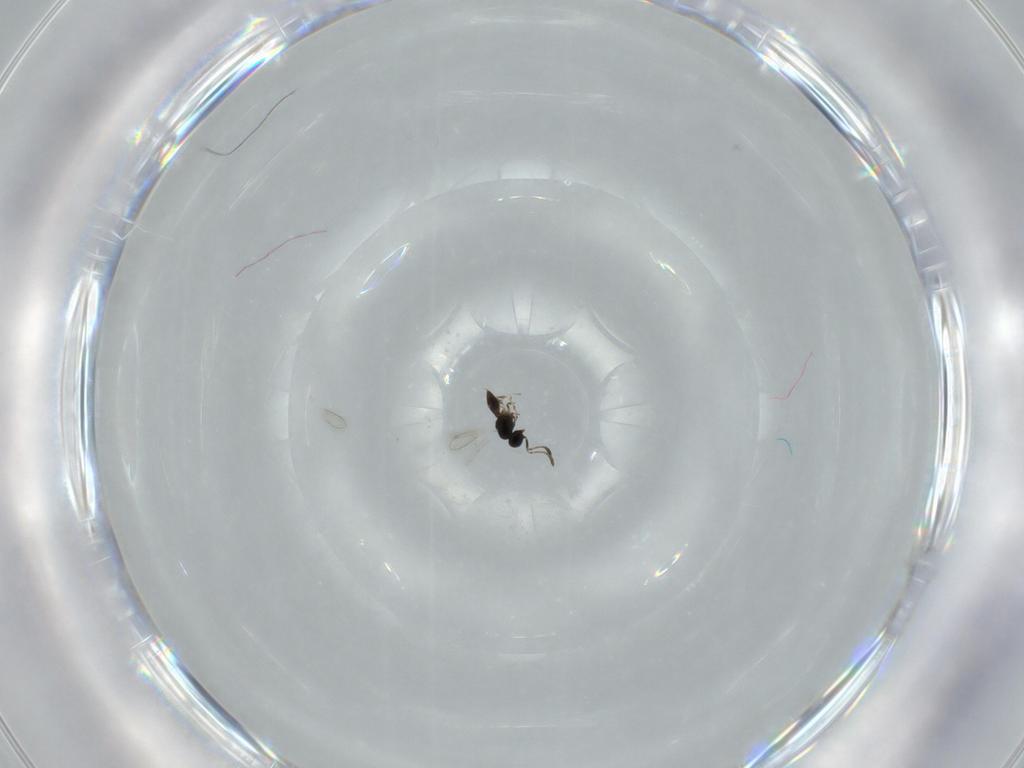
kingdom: Animalia
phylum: Arthropoda
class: Insecta
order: Hymenoptera
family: Scelionidae
